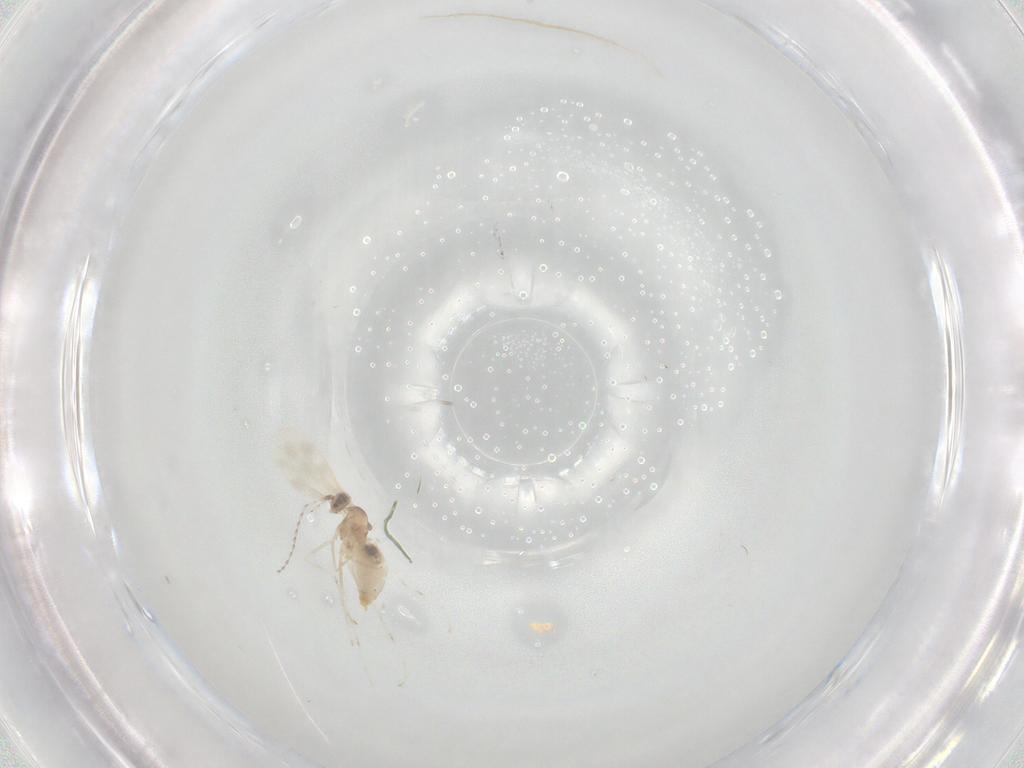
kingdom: Animalia
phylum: Arthropoda
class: Insecta
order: Diptera
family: Cecidomyiidae
